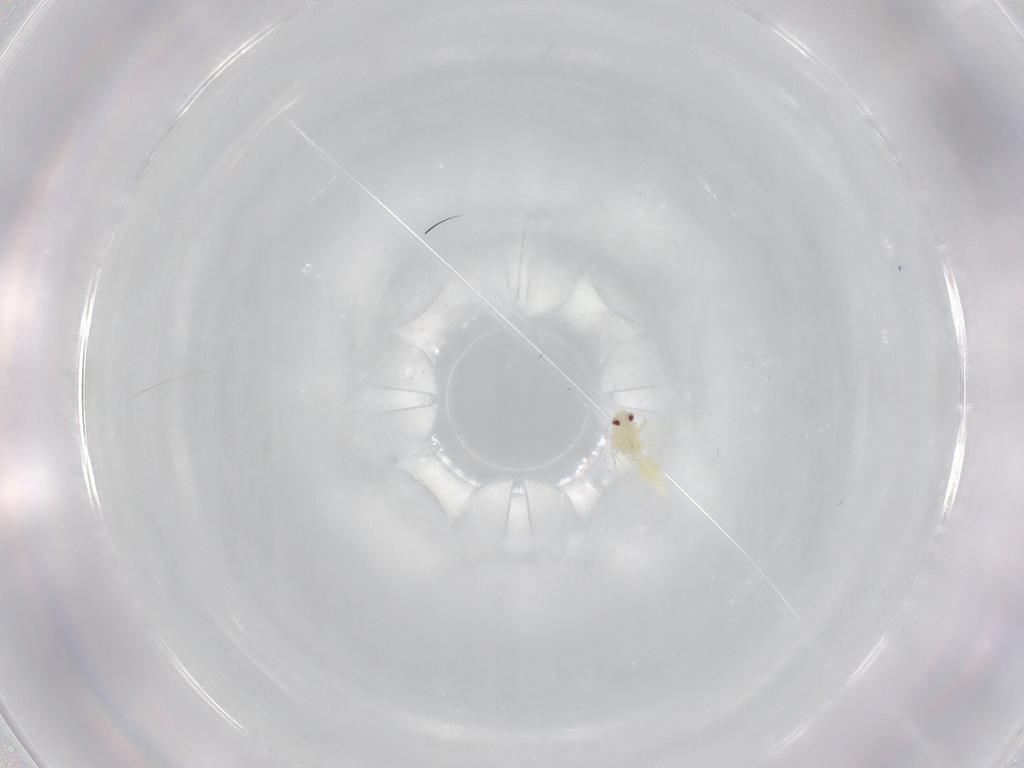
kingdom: Animalia
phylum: Arthropoda
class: Insecta
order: Hemiptera
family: Aleyrodidae
